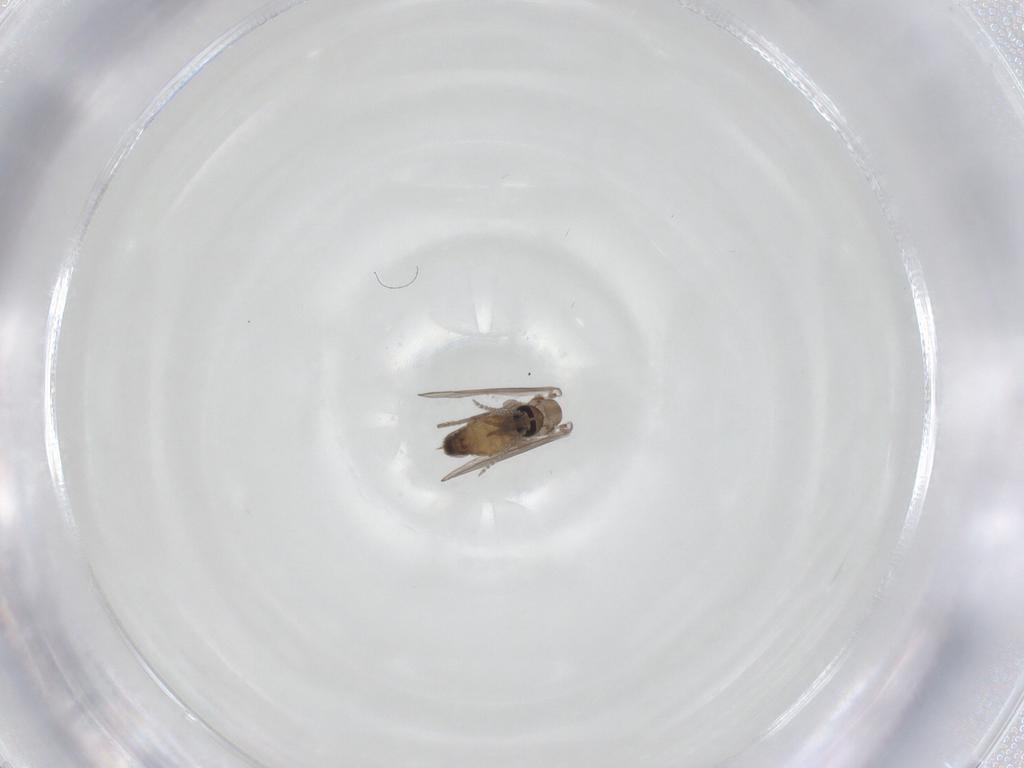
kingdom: Animalia
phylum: Arthropoda
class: Insecta
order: Diptera
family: Psychodidae
